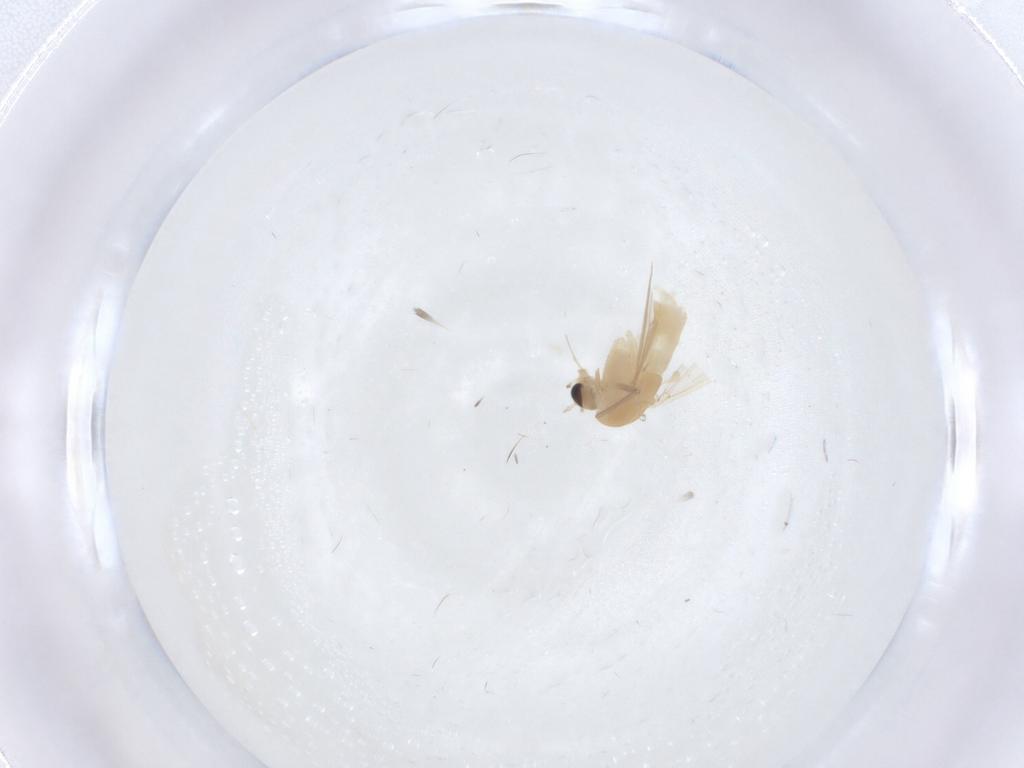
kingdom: Animalia
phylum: Arthropoda
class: Insecta
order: Diptera
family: Chironomidae
